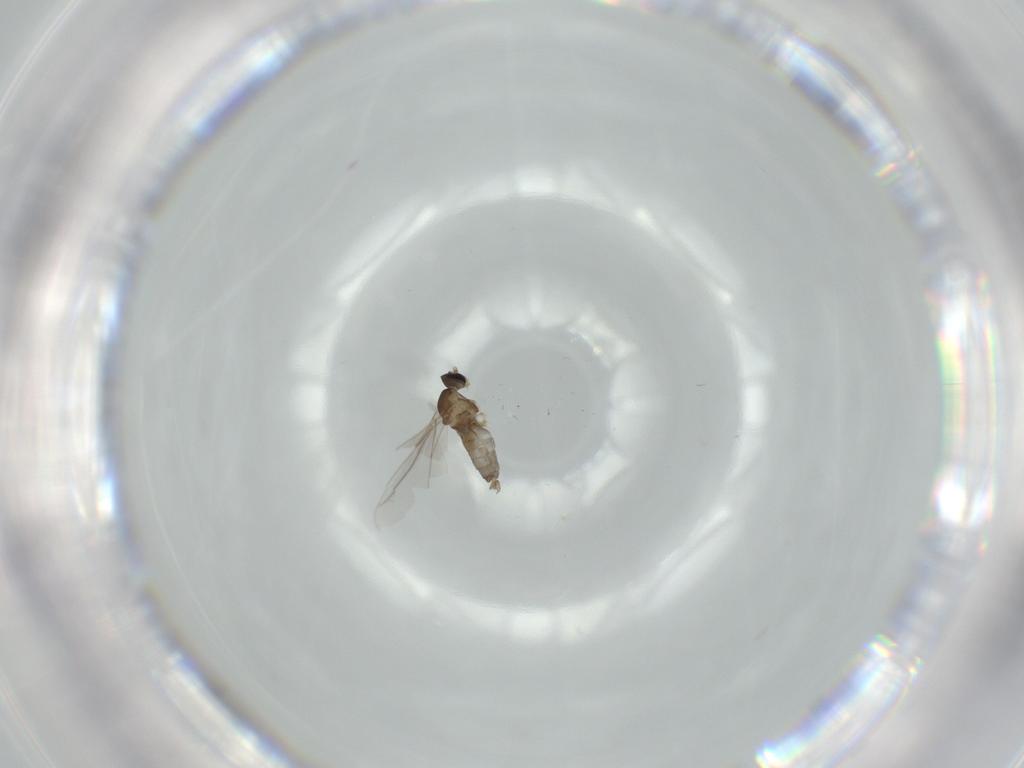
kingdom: Animalia
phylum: Arthropoda
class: Insecta
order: Diptera
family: Cecidomyiidae
